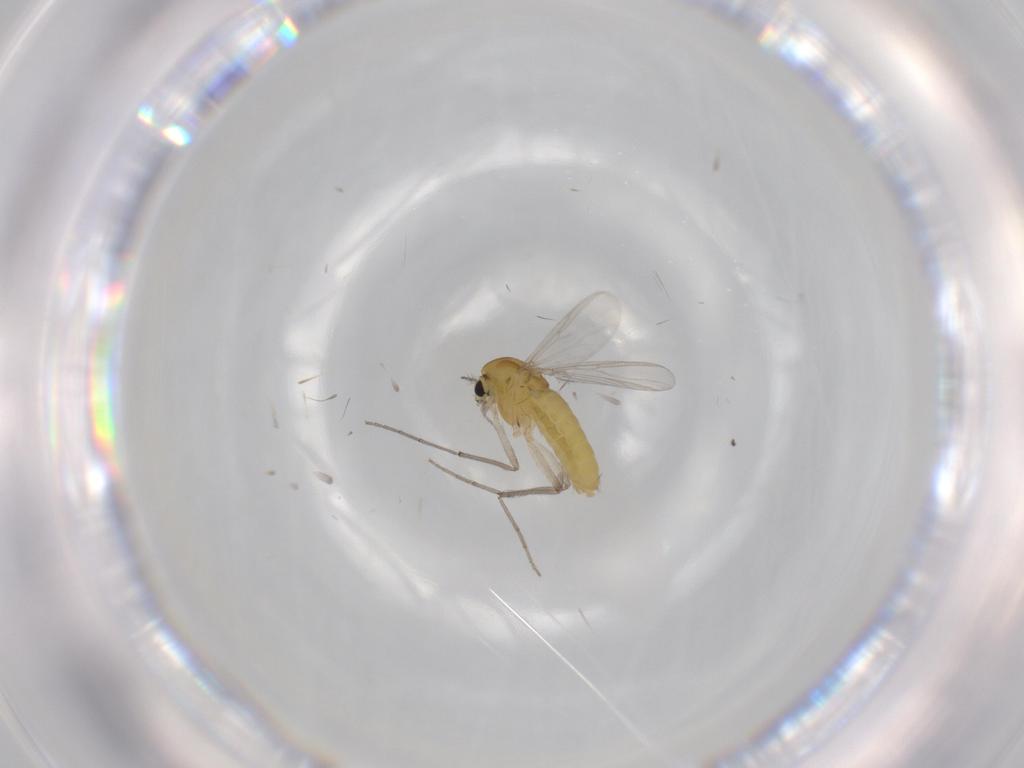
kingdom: Animalia
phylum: Arthropoda
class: Insecta
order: Diptera
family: Chironomidae
